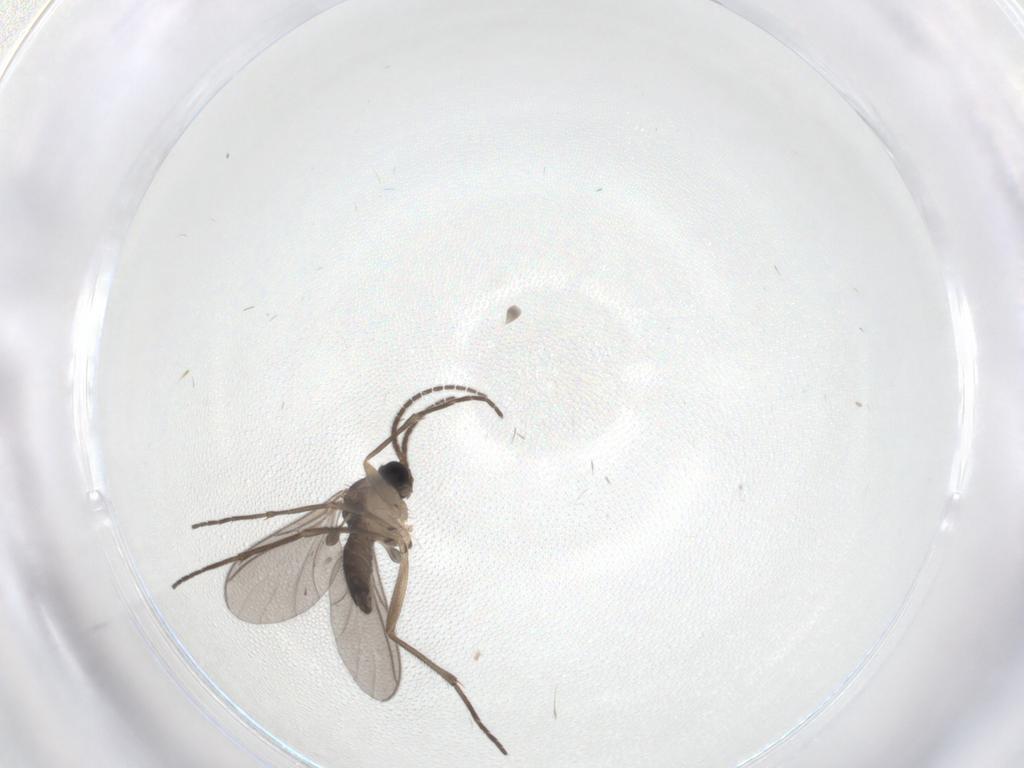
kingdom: Animalia
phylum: Arthropoda
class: Insecta
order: Diptera
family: Sciaridae
